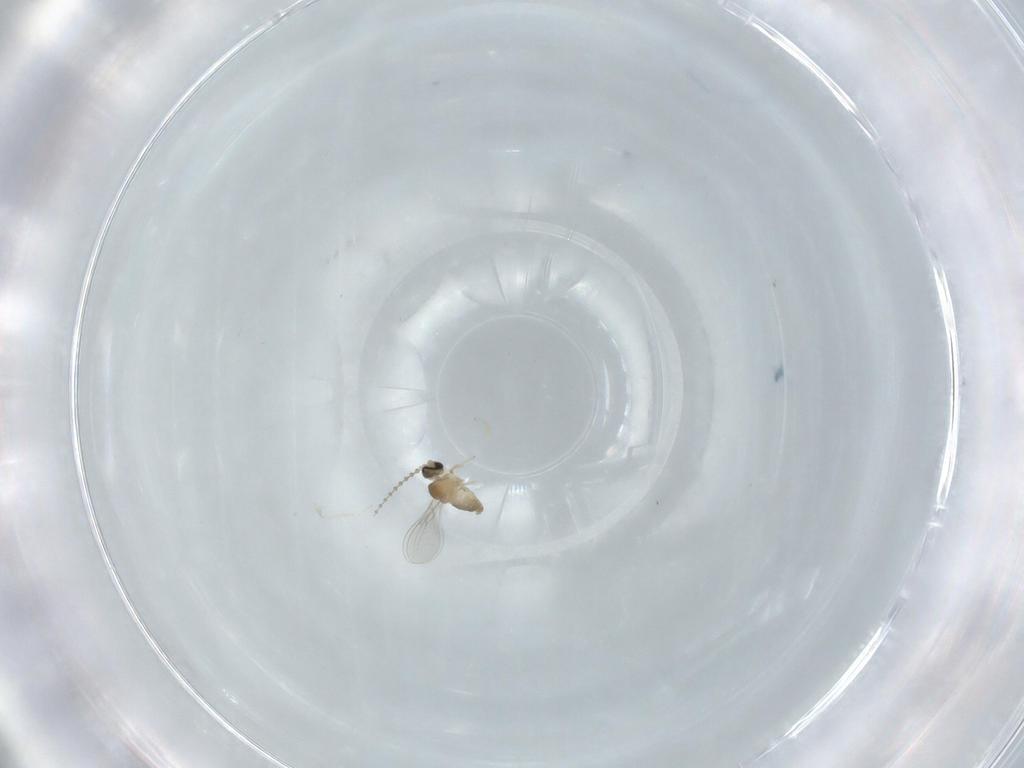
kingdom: Animalia
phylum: Arthropoda
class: Insecta
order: Diptera
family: Cecidomyiidae
